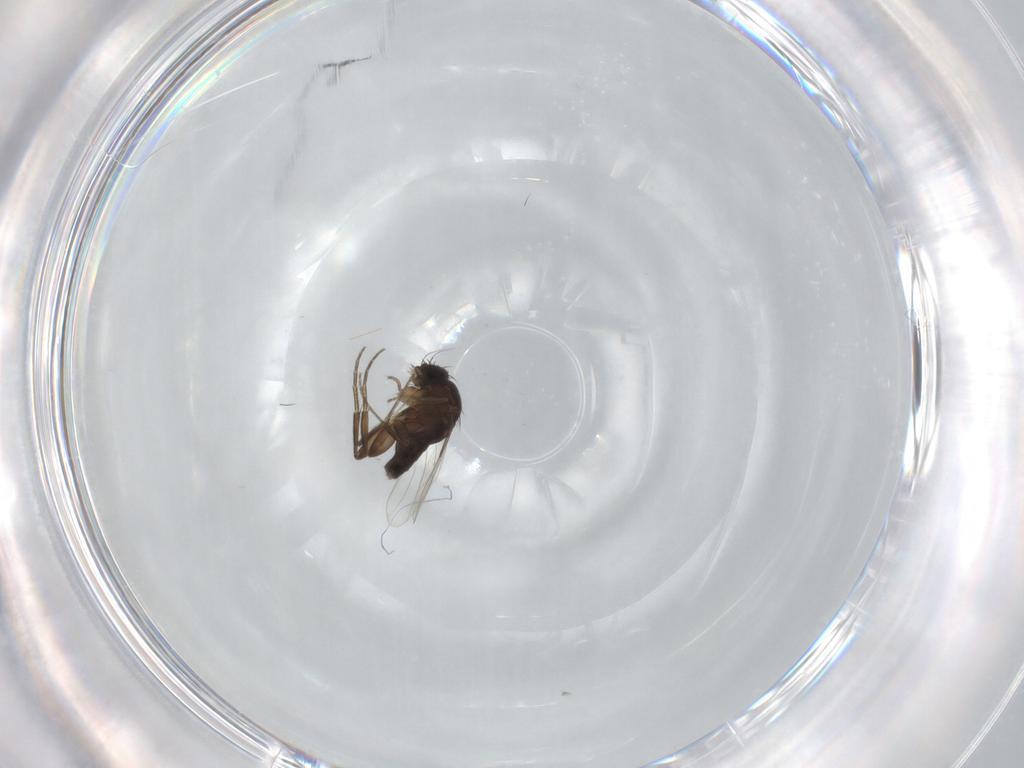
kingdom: Animalia
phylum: Arthropoda
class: Insecta
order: Diptera
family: Phoridae
